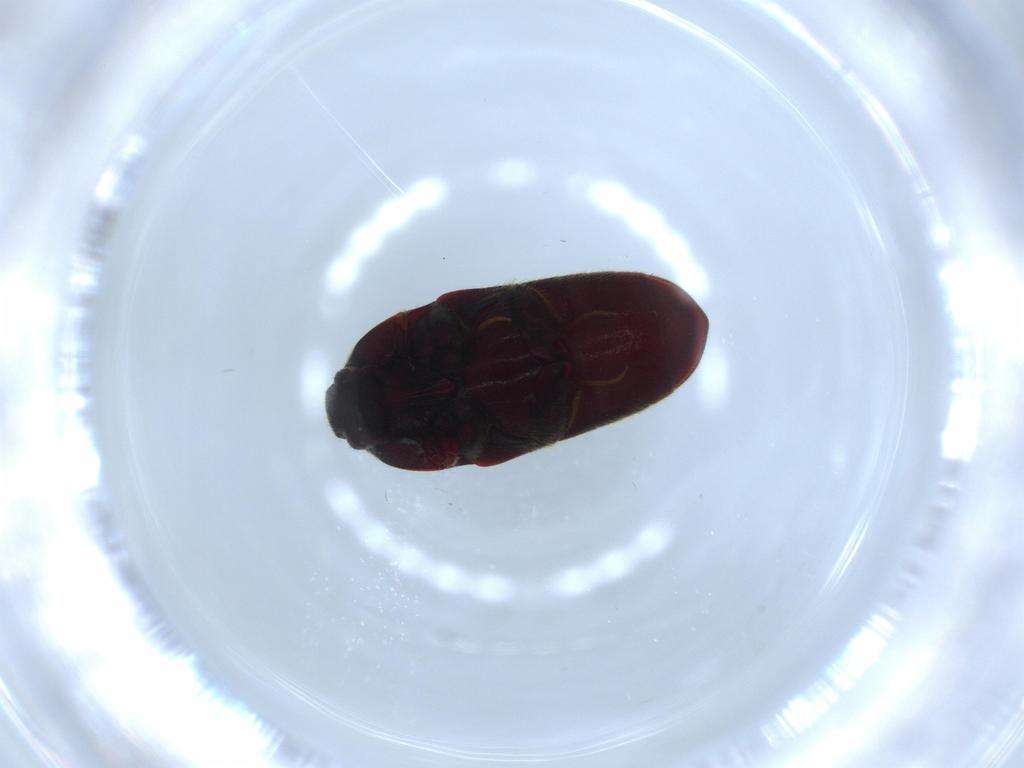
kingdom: Animalia
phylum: Arthropoda
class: Insecta
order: Coleoptera
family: Throscidae
